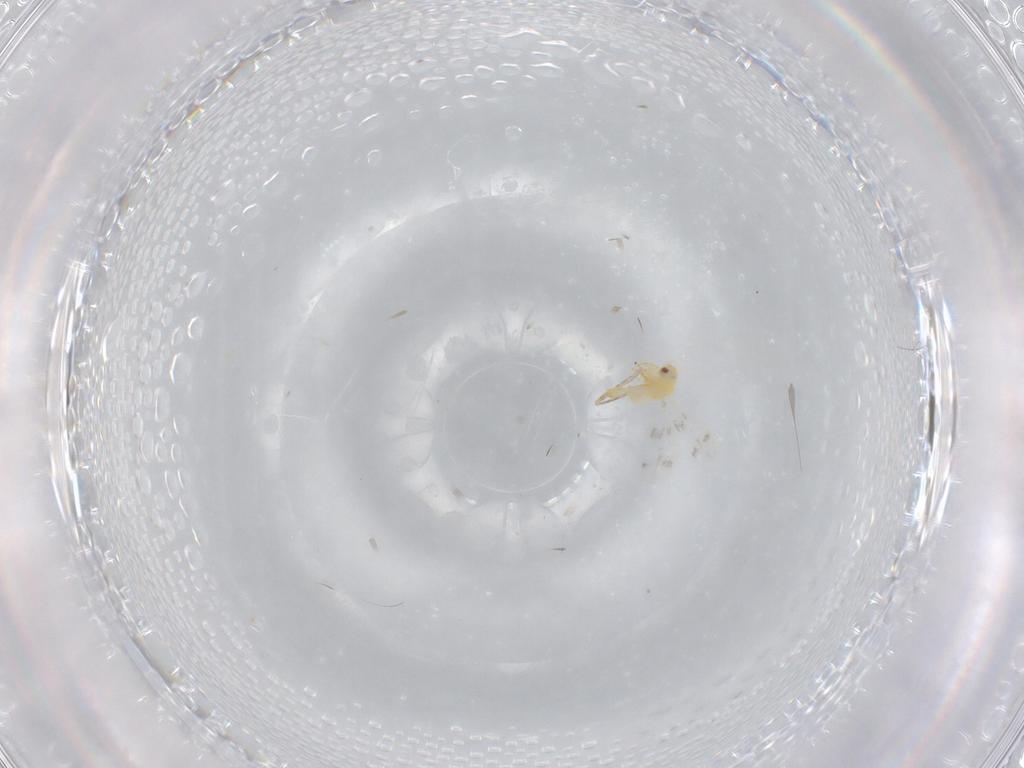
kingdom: Animalia
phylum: Arthropoda
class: Insecta
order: Hemiptera
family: Aleyrodidae
